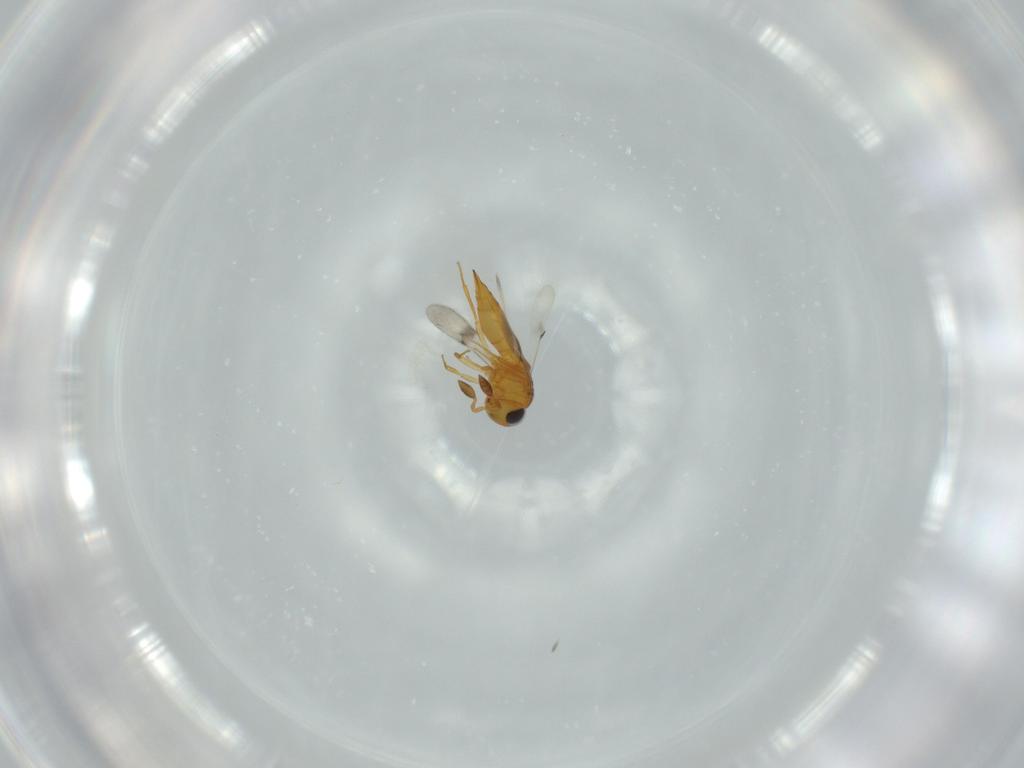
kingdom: Animalia
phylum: Arthropoda
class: Insecta
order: Hymenoptera
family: Scelionidae
